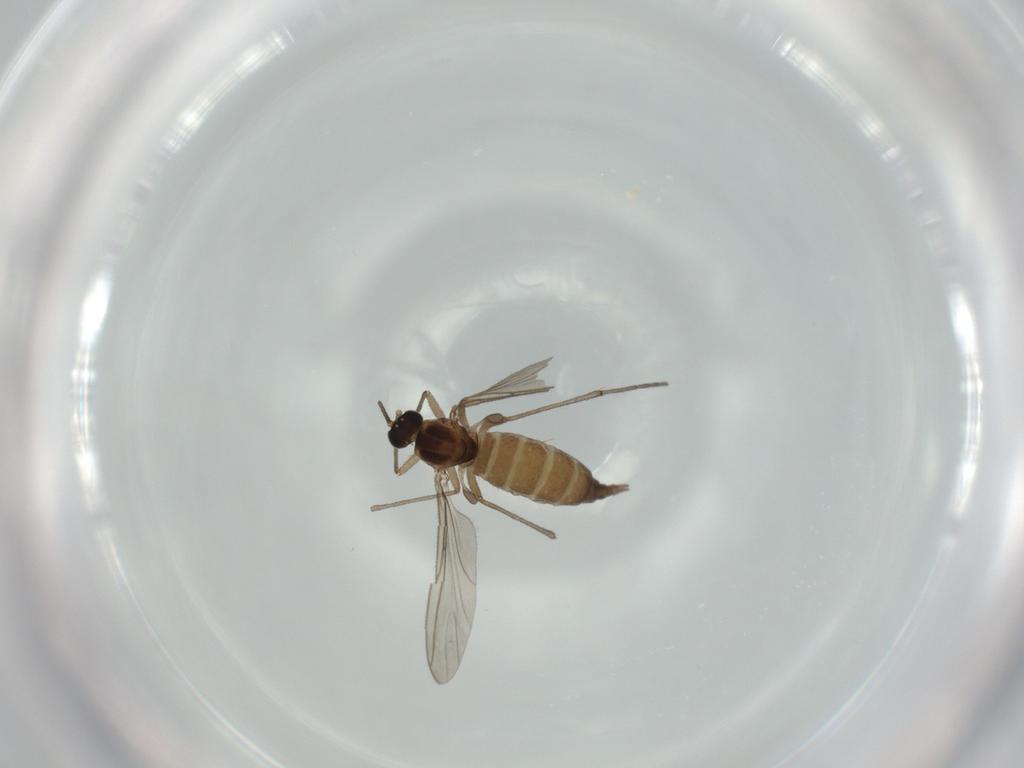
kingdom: Animalia
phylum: Arthropoda
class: Insecta
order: Diptera
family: Sciaridae
